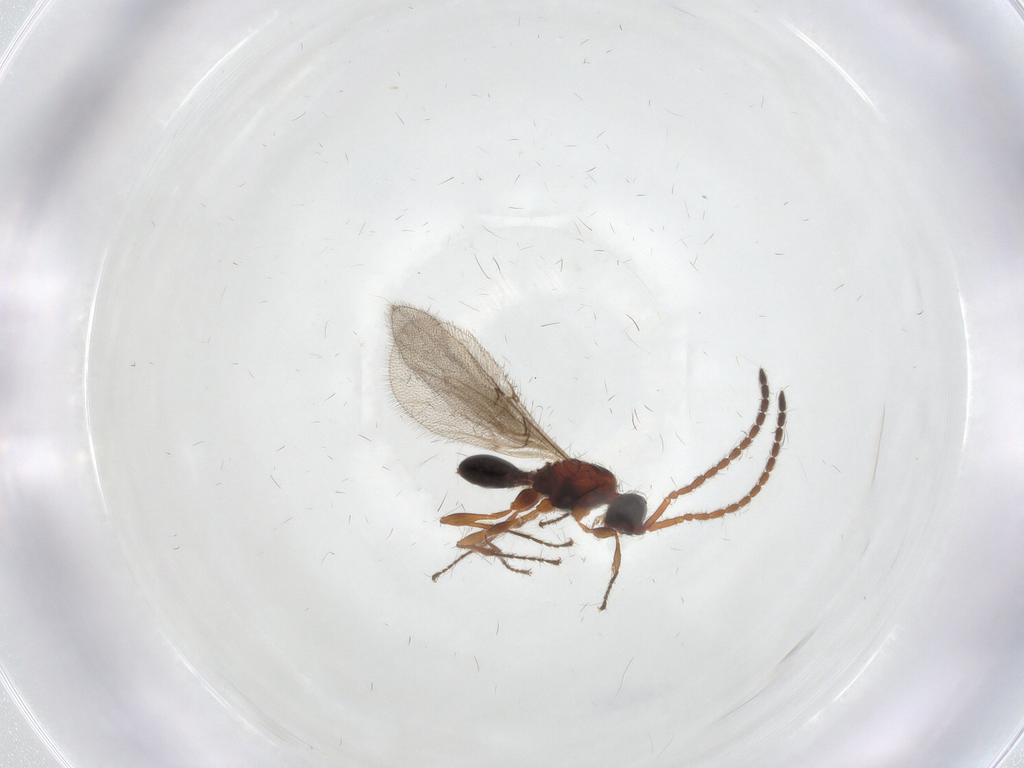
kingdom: Animalia
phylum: Arthropoda
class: Insecta
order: Hymenoptera
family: Diapriidae
